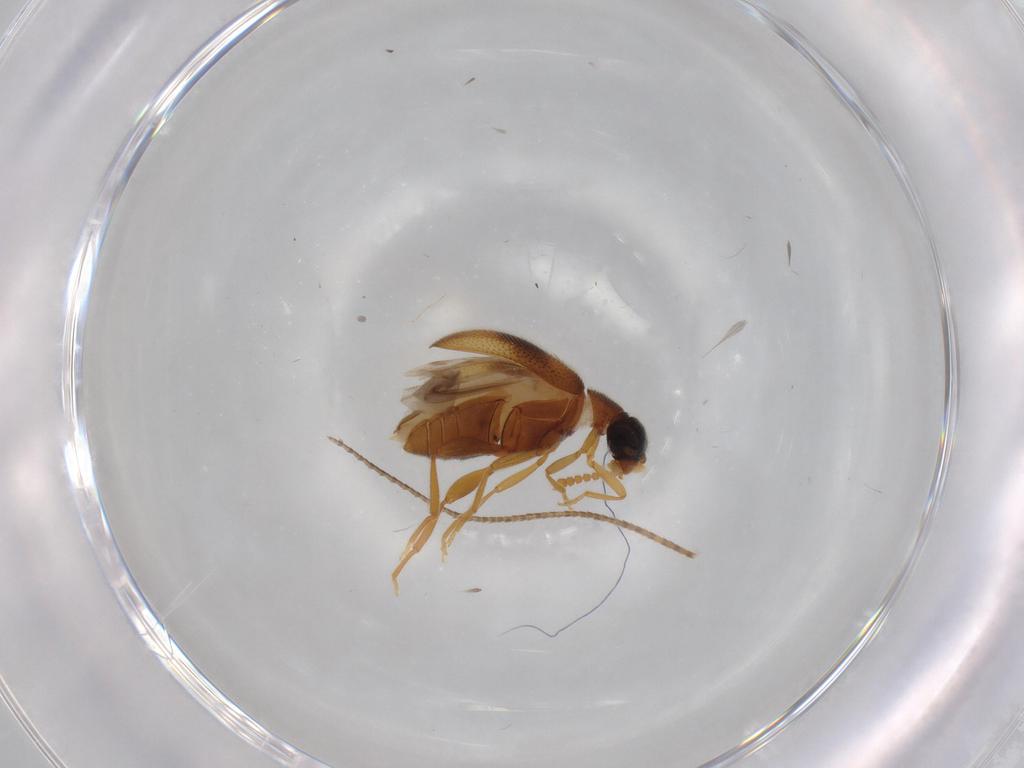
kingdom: Animalia
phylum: Arthropoda
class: Insecta
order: Coleoptera
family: Aderidae
